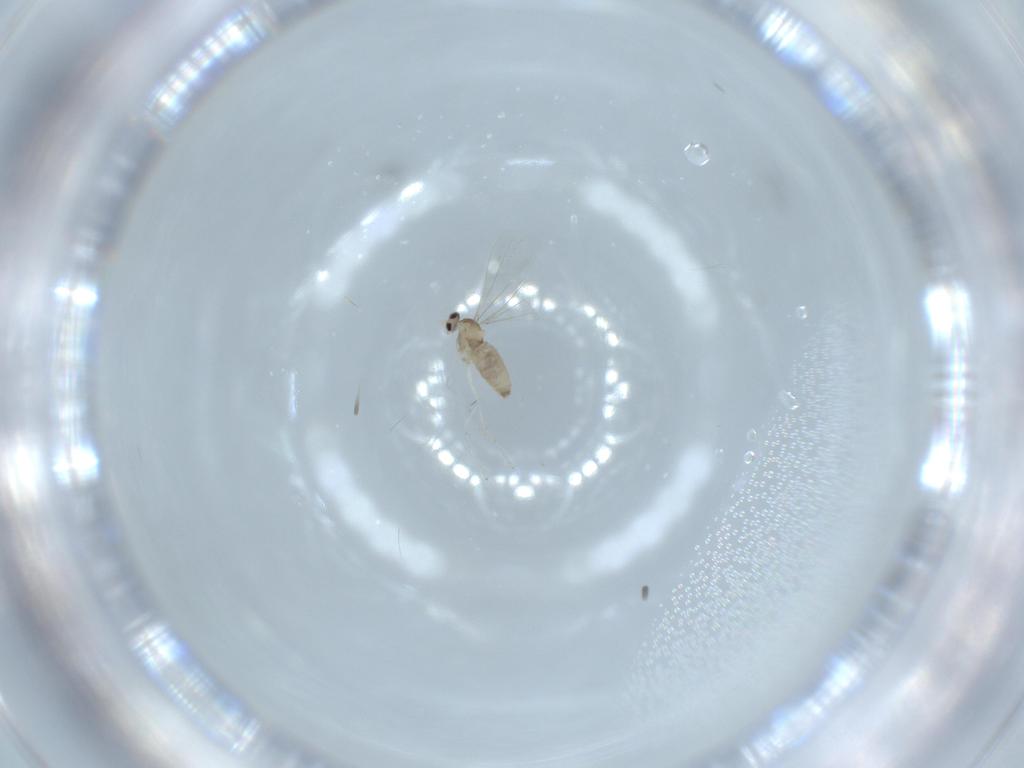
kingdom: Animalia
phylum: Arthropoda
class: Insecta
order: Diptera
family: Cecidomyiidae
